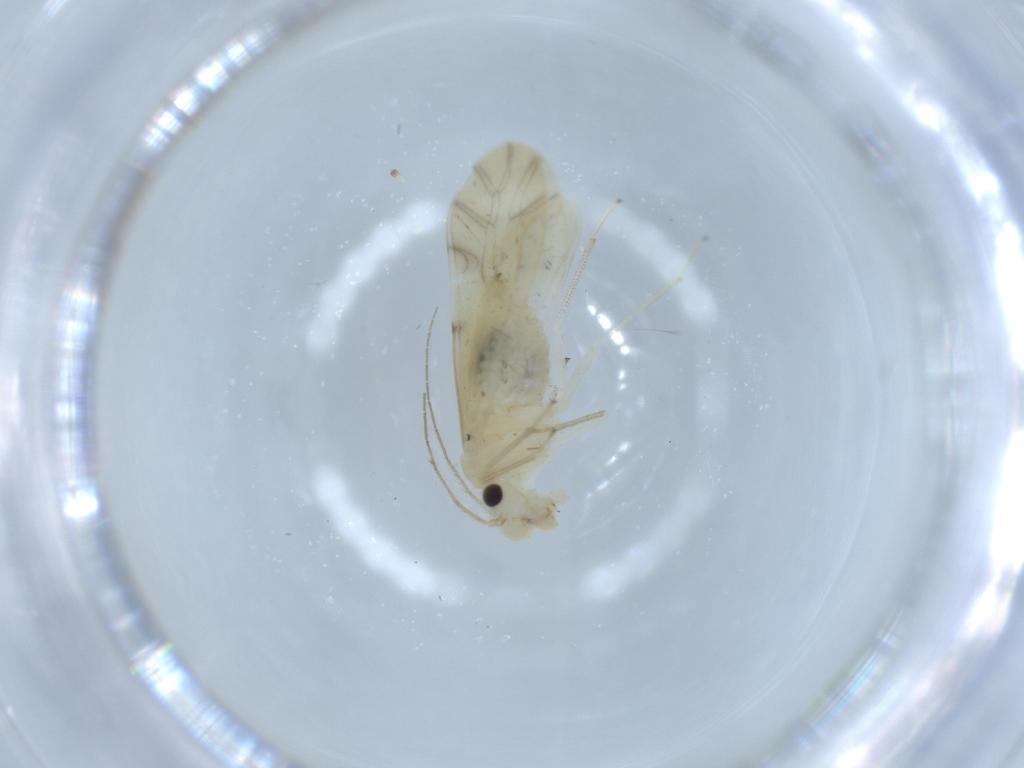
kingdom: Animalia
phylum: Arthropoda
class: Insecta
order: Psocodea
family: Caeciliusidae
